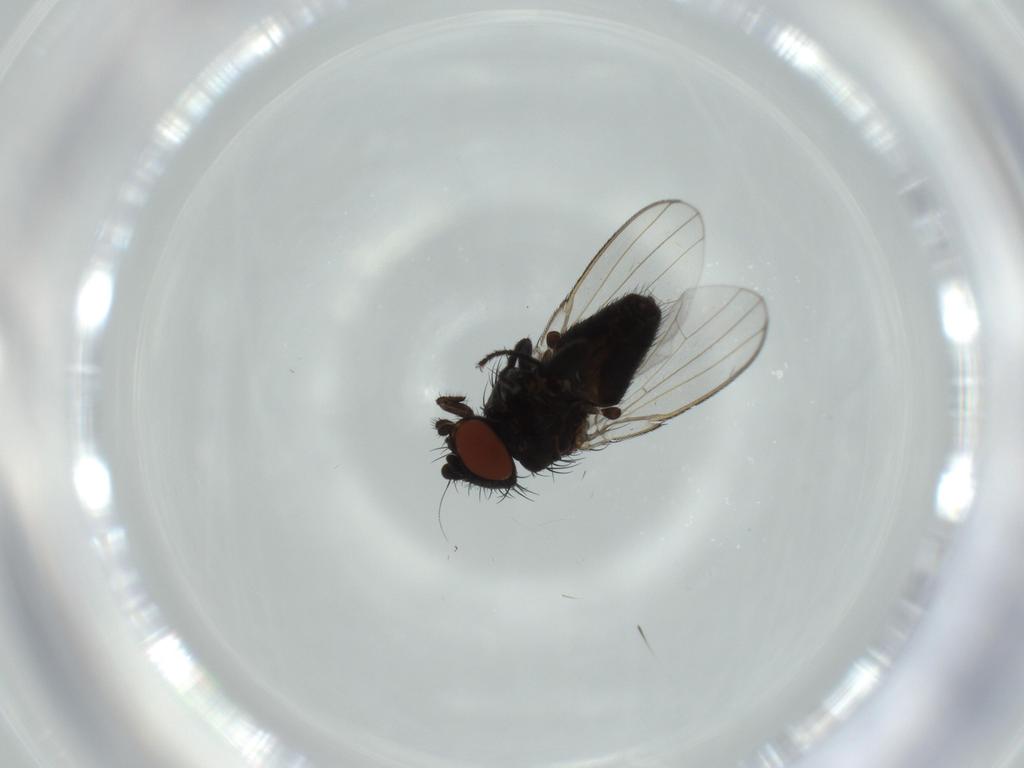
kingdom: Animalia
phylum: Arthropoda
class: Insecta
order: Diptera
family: Milichiidae
